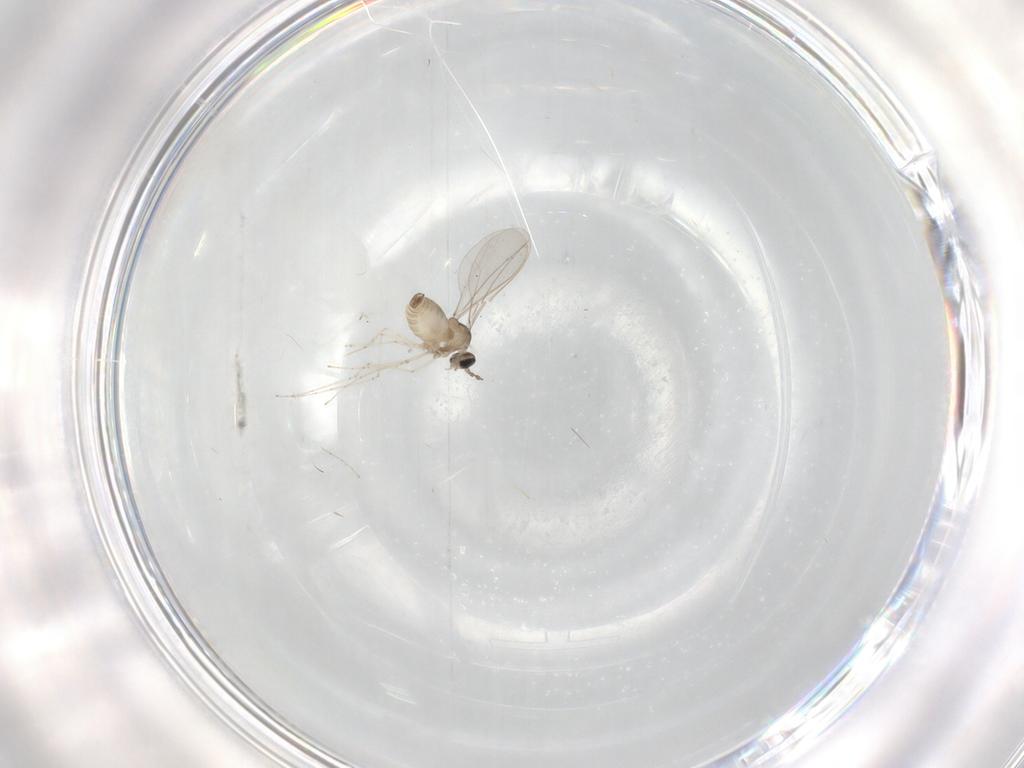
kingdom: Animalia
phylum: Arthropoda
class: Insecta
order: Diptera
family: Cecidomyiidae
